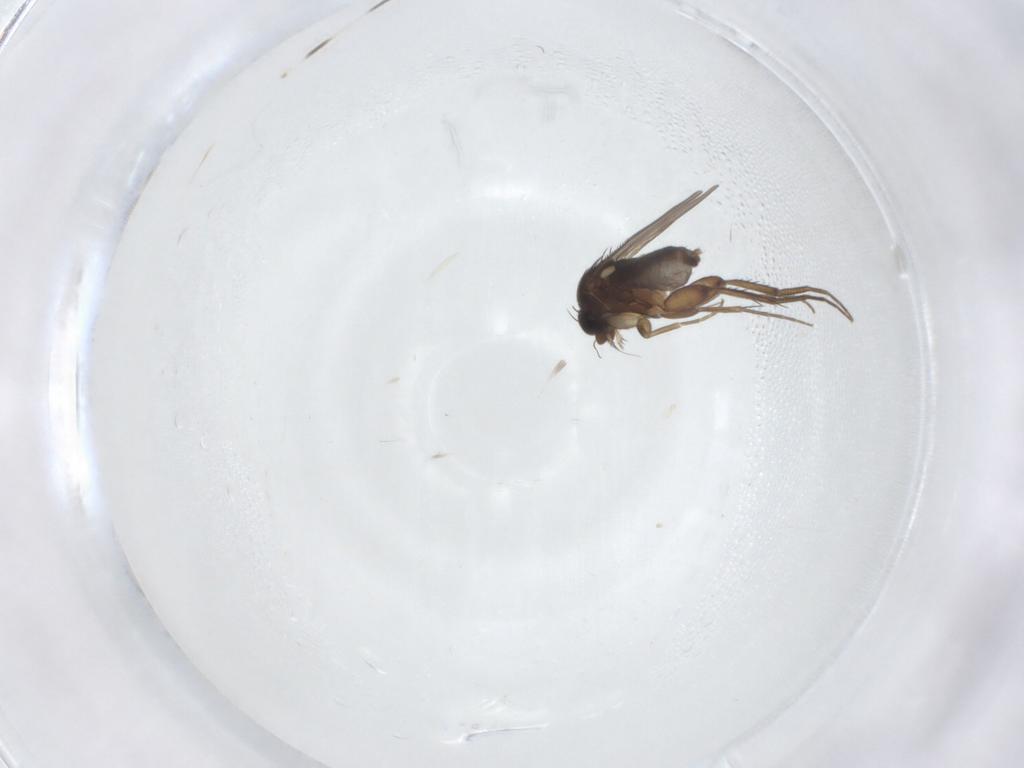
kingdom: Animalia
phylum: Arthropoda
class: Insecta
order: Diptera
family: Phoridae
